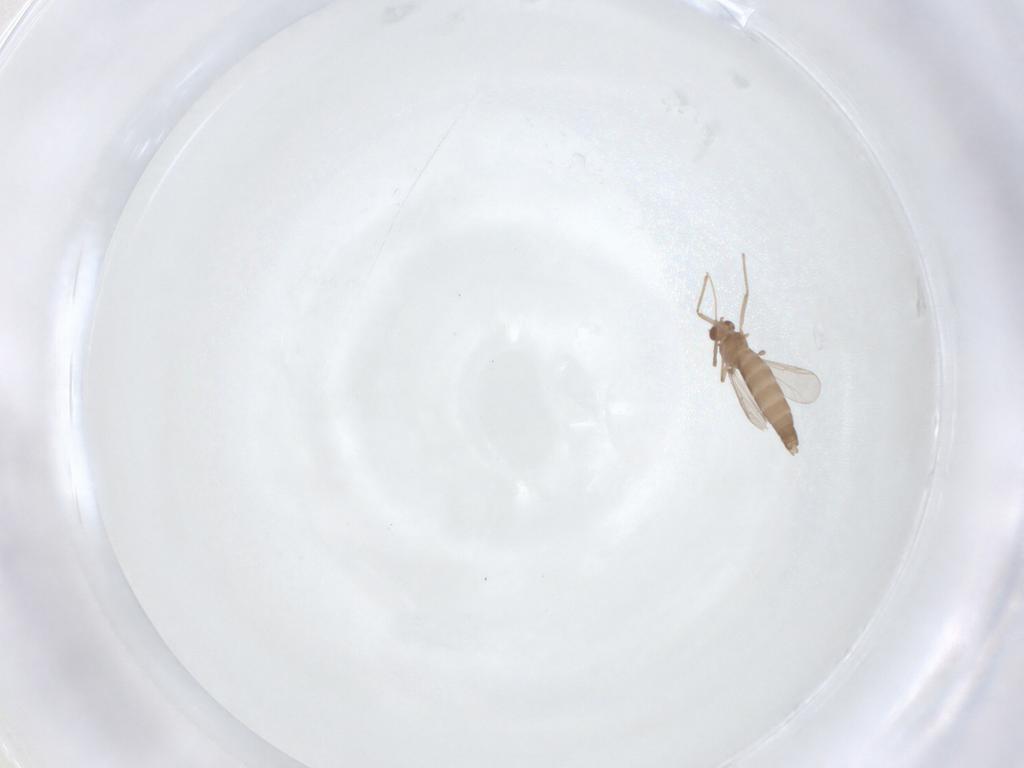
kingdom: Animalia
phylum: Arthropoda
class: Insecta
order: Diptera
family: Chironomidae
